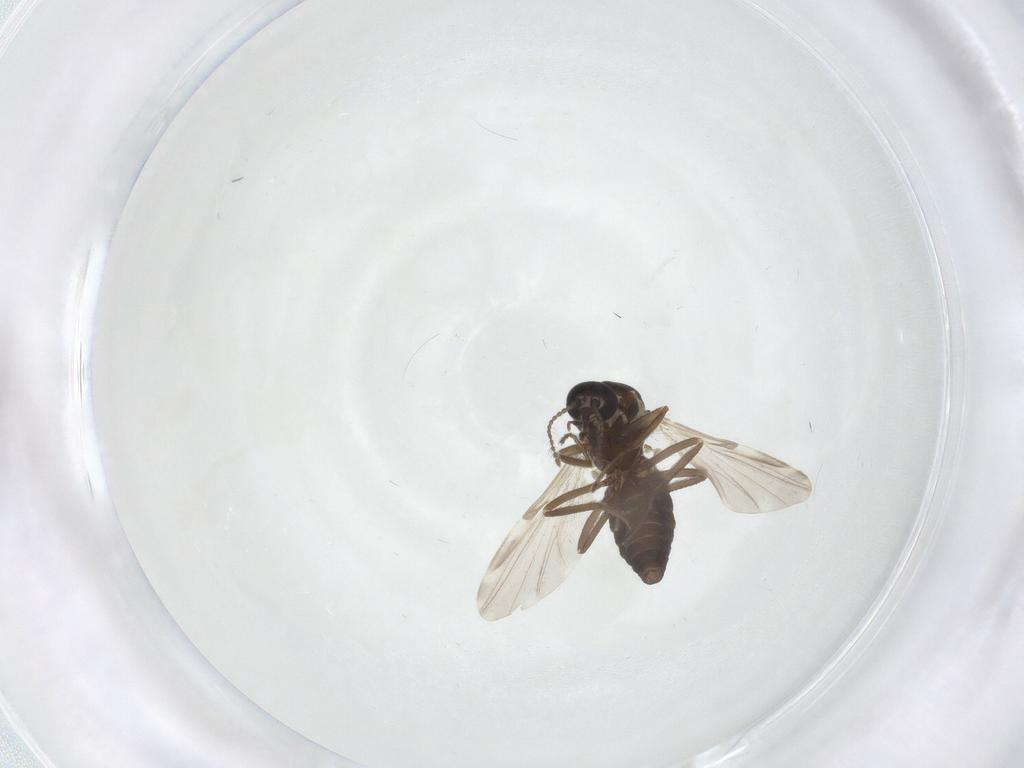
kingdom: Animalia
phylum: Arthropoda
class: Insecta
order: Diptera
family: Ceratopogonidae
